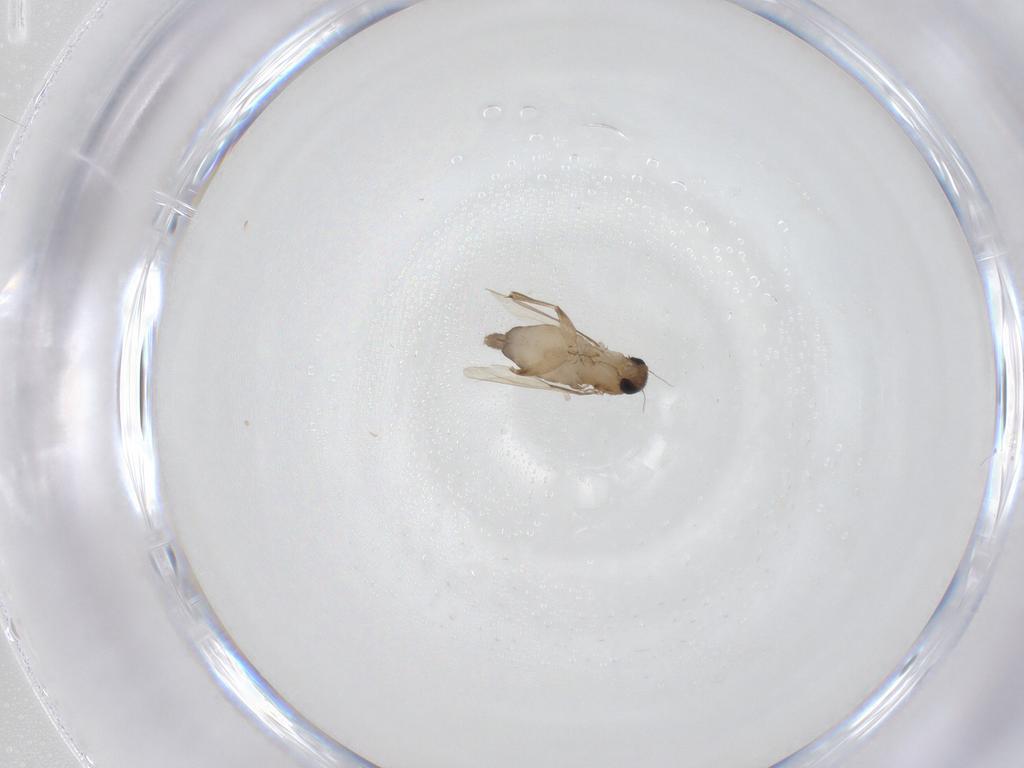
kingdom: Animalia
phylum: Arthropoda
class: Insecta
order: Diptera
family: Phoridae
